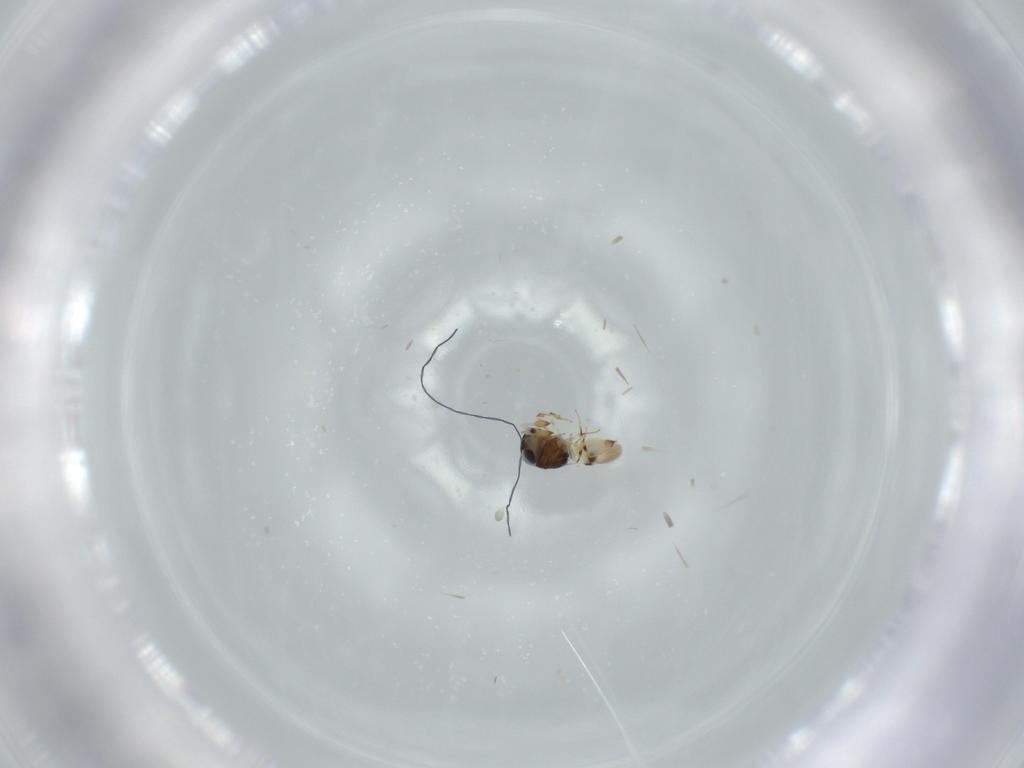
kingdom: Animalia
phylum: Arthropoda
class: Insecta
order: Hymenoptera
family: Scelionidae
